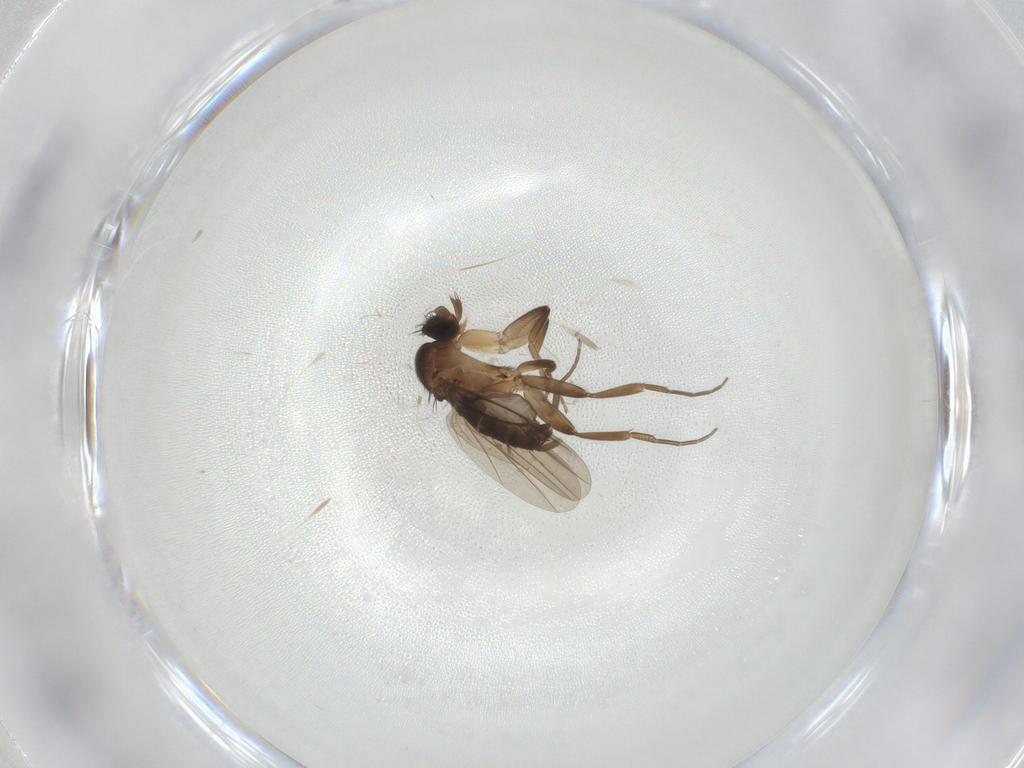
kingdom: Animalia
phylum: Arthropoda
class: Insecta
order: Diptera
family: Phoridae
